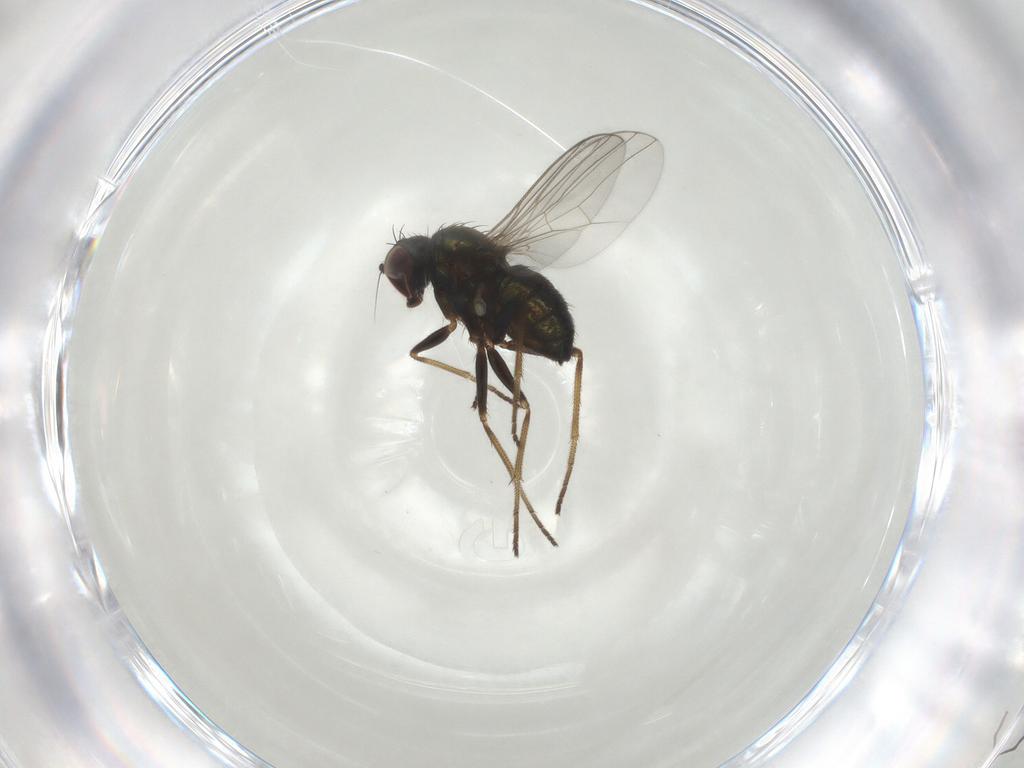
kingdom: Animalia
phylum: Arthropoda
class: Insecta
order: Diptera
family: Dolichopodidae
